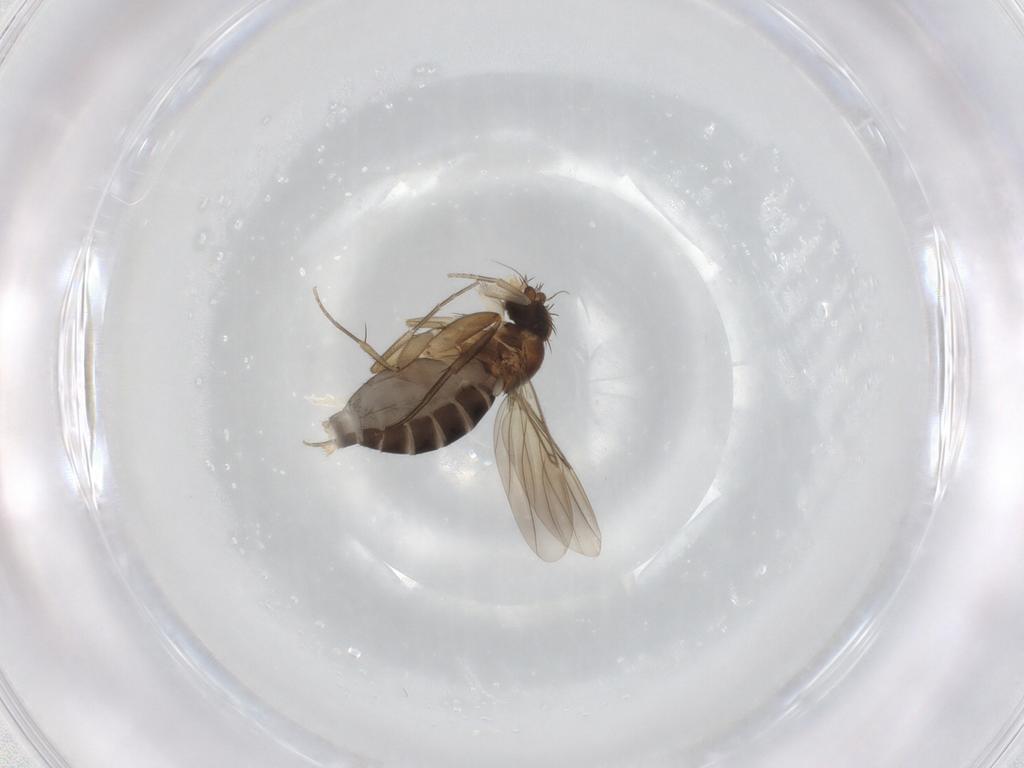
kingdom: Animalia
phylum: Arthropoda
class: Insecta
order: Diptera
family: Phoridae
